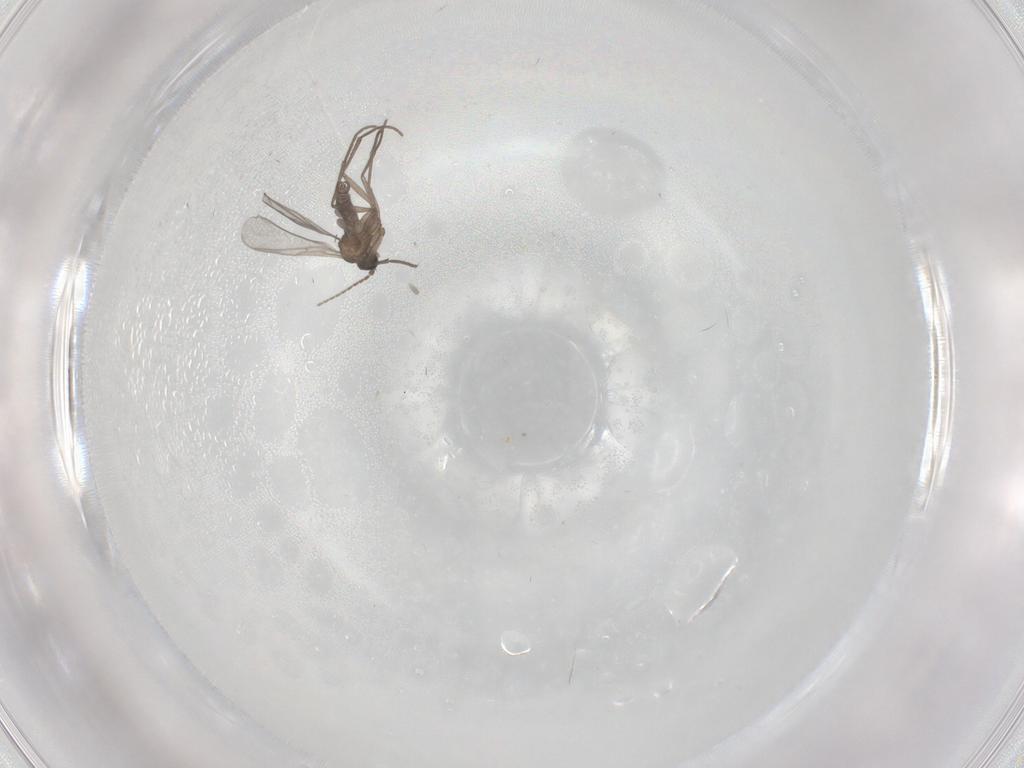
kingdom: Animalia
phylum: Arthropoda
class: Insecta
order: Diptera
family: Sciaridae
